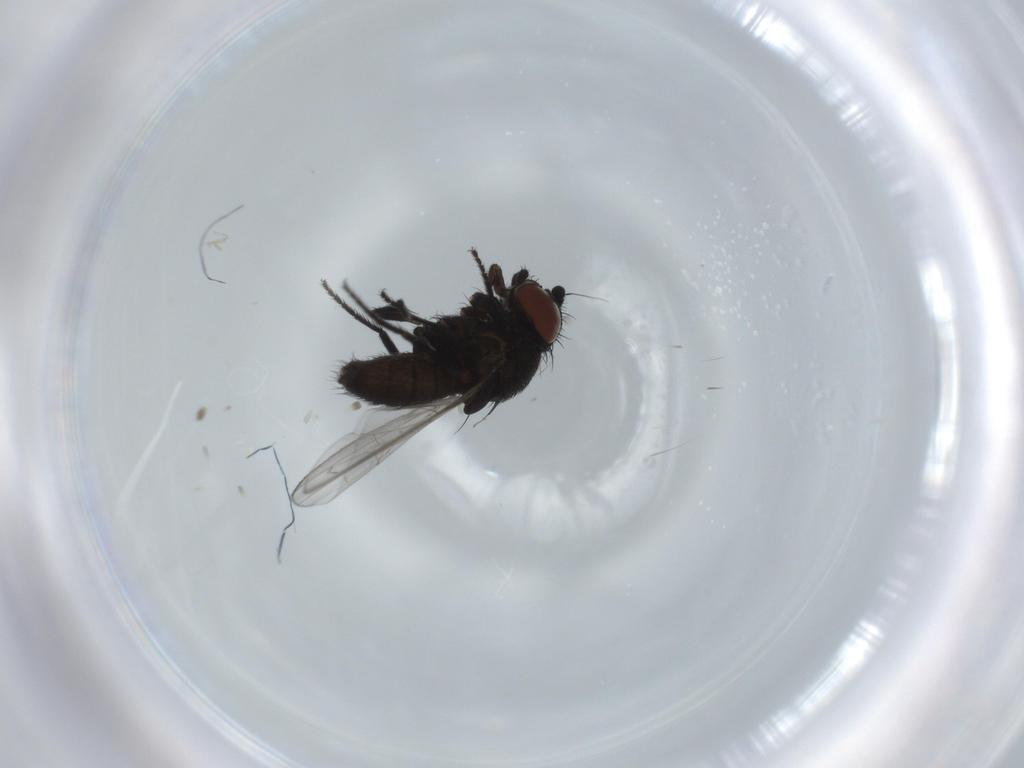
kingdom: Animalia
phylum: Arthropoda
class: Insecta
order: Diptera
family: Milichiidae
